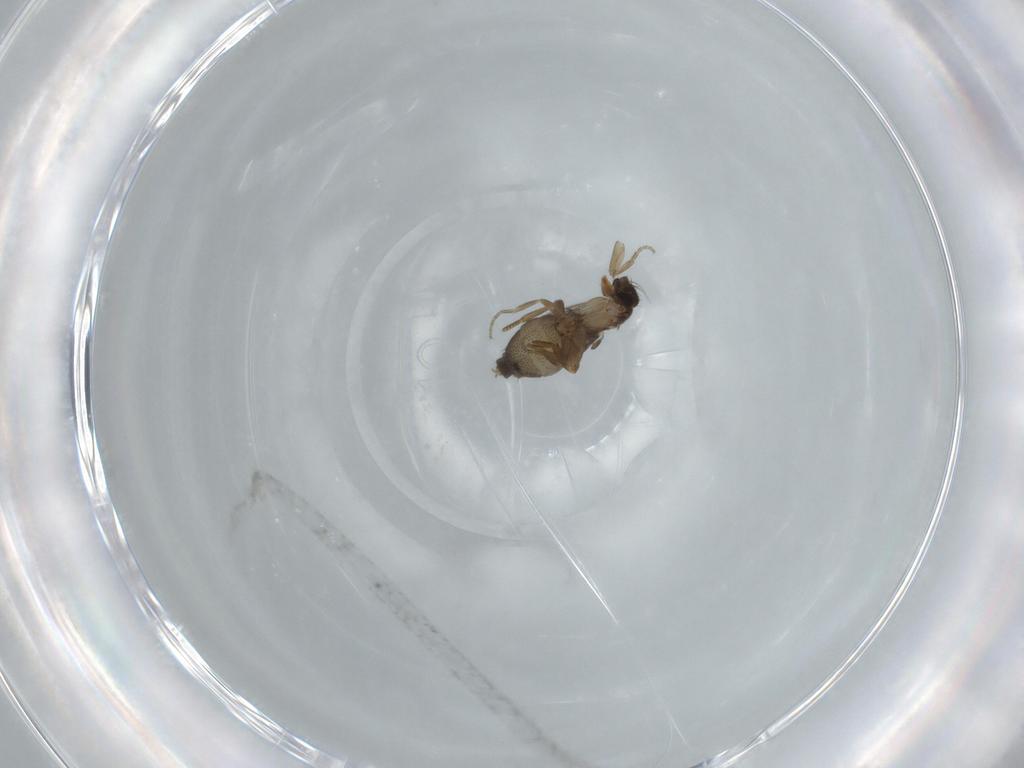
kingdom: Animalia
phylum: Arthropoda
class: Insecta
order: Diptera
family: Phoridae
